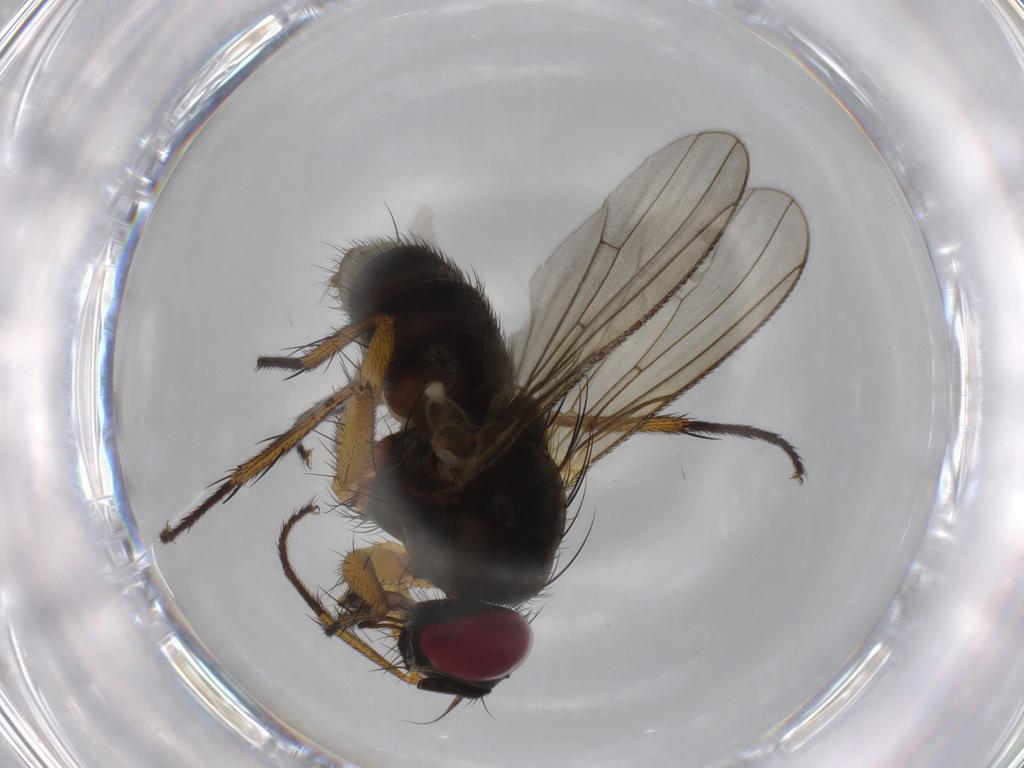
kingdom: Animalia
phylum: Arthropoda
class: Insecta
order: Diptera
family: Muscidae
